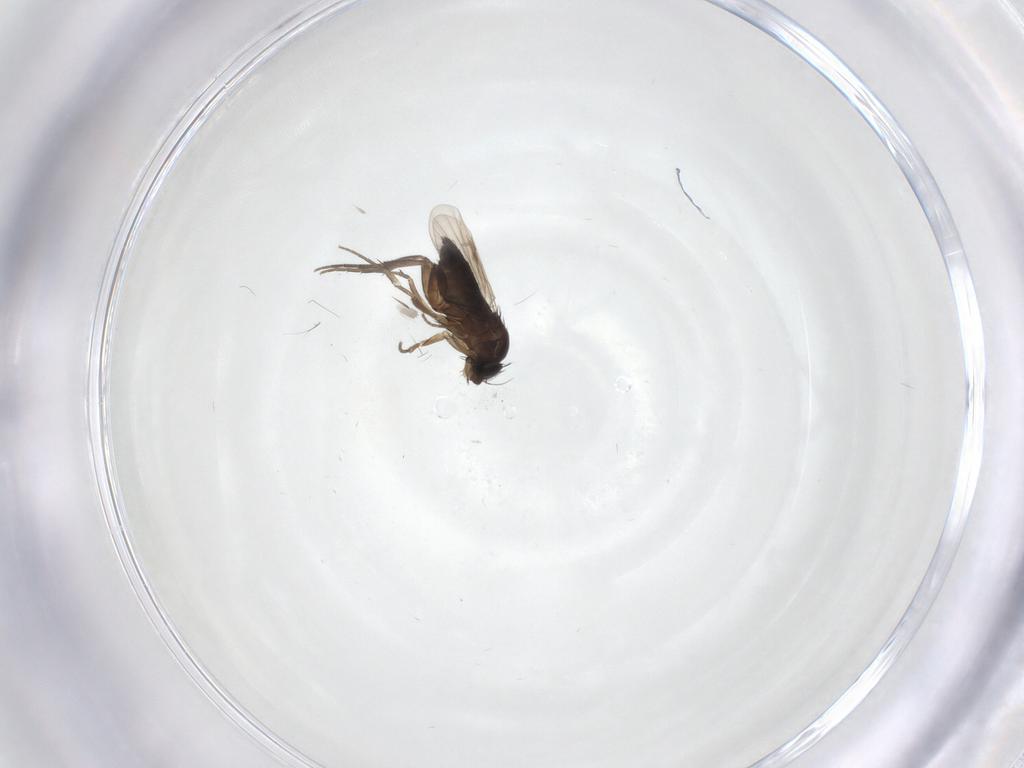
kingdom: Animalia
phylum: Arthropoda
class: Insecta
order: Diptera
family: Phoridae
